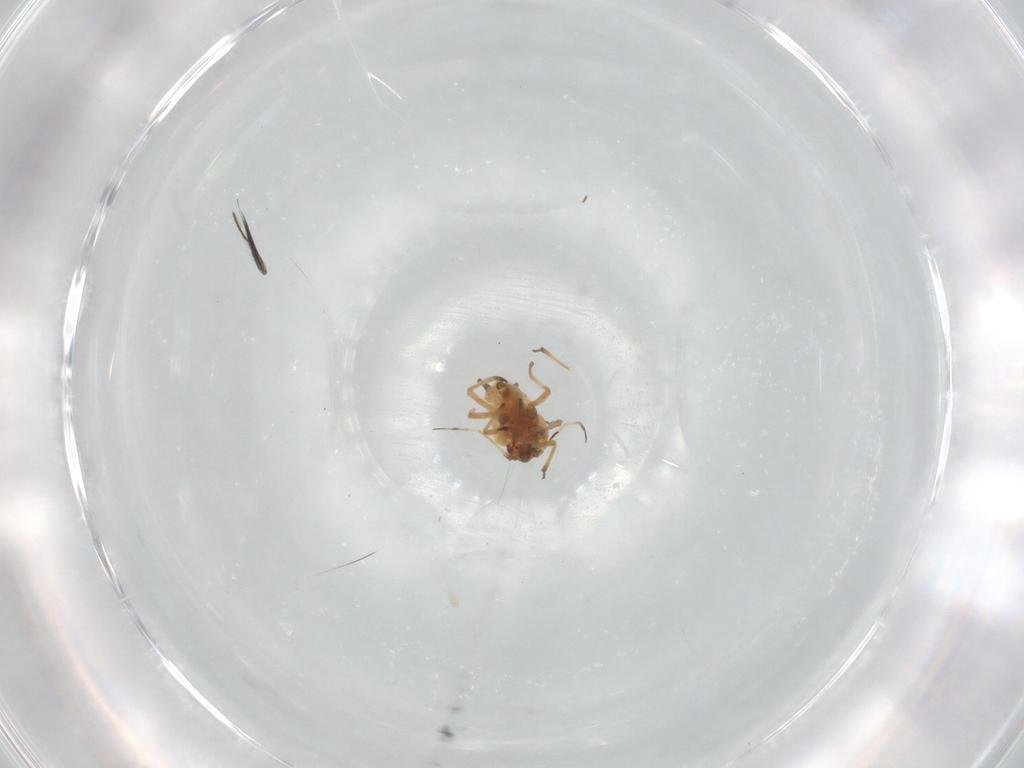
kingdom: Animalia
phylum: Arthropoda
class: Insecta
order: Hemiptera
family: Aphididae
